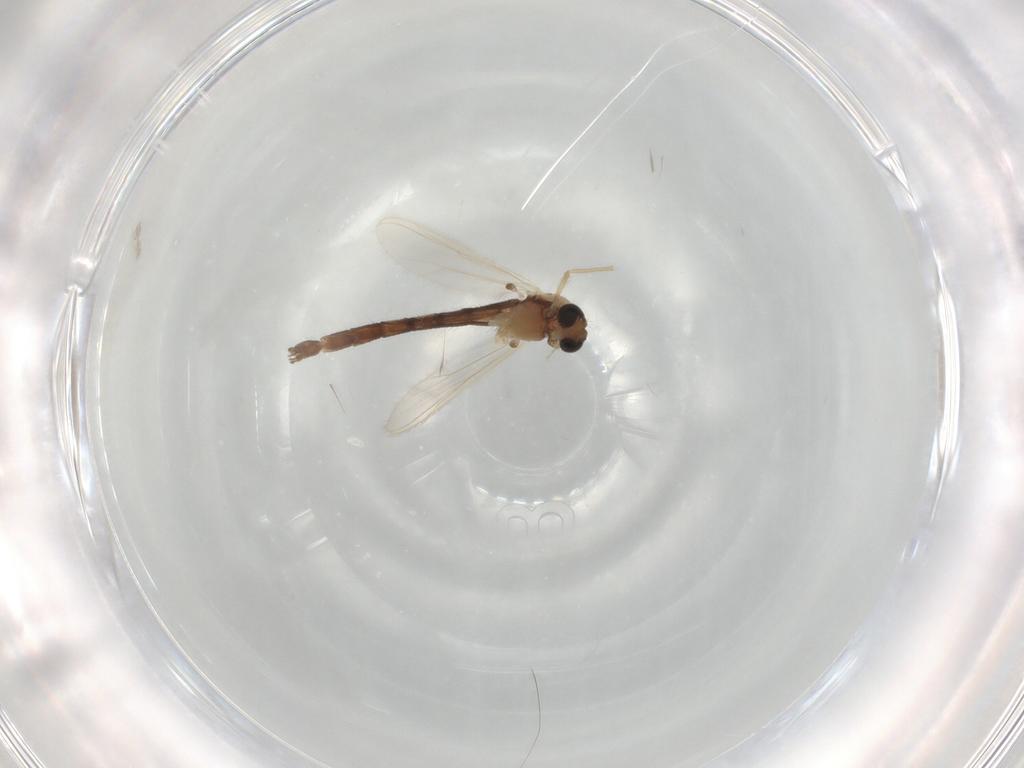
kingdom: Animalia
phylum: Arthropoda
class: Insecta
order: Diptera
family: Chironomidae
